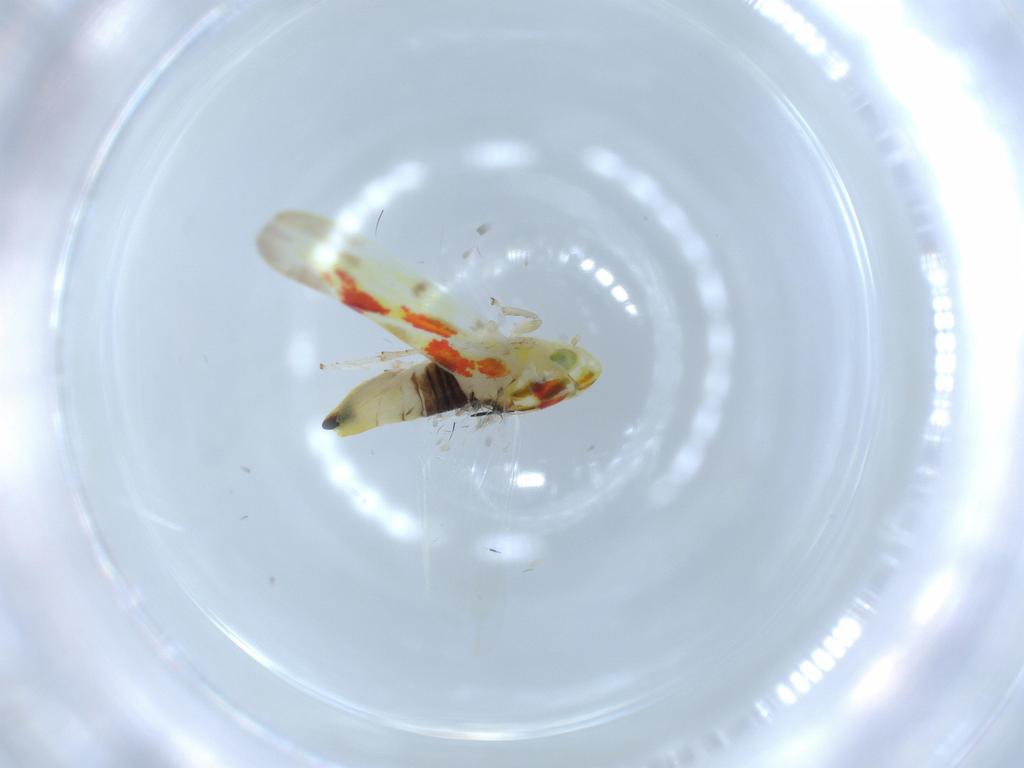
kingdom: Animalia
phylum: Arthropoda
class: Insecta
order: Hemiptera
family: Cicadellidae
